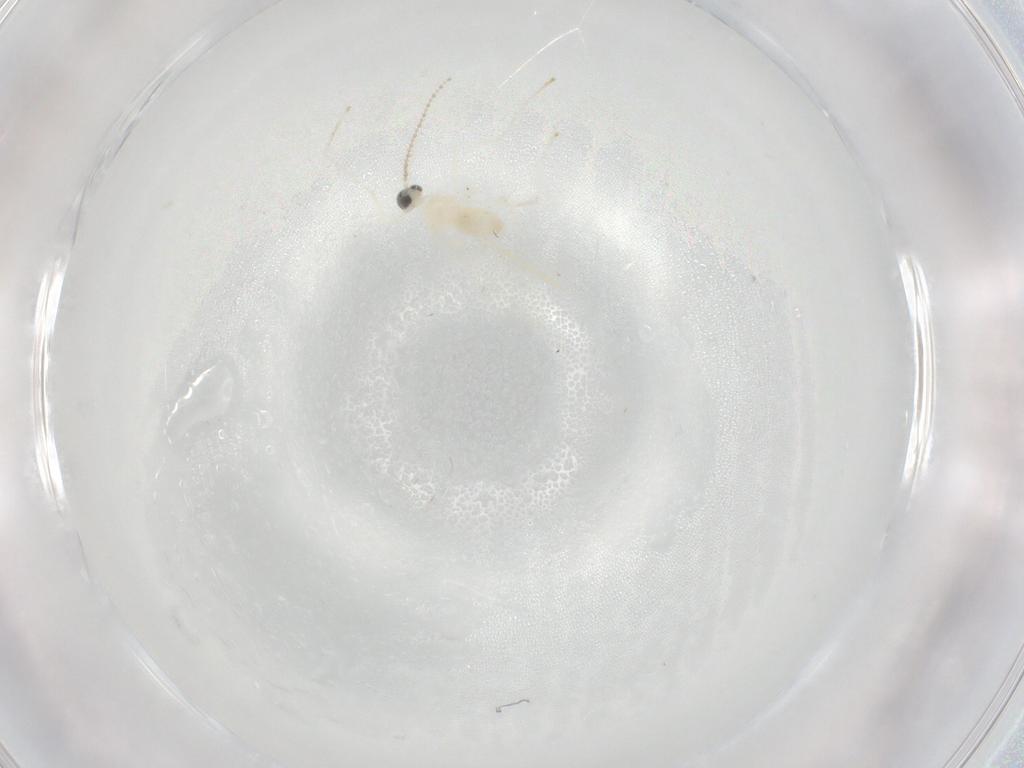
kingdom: Animalia
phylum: Arthropoda
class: Insecta
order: Diptera
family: Cecidomyiidae
